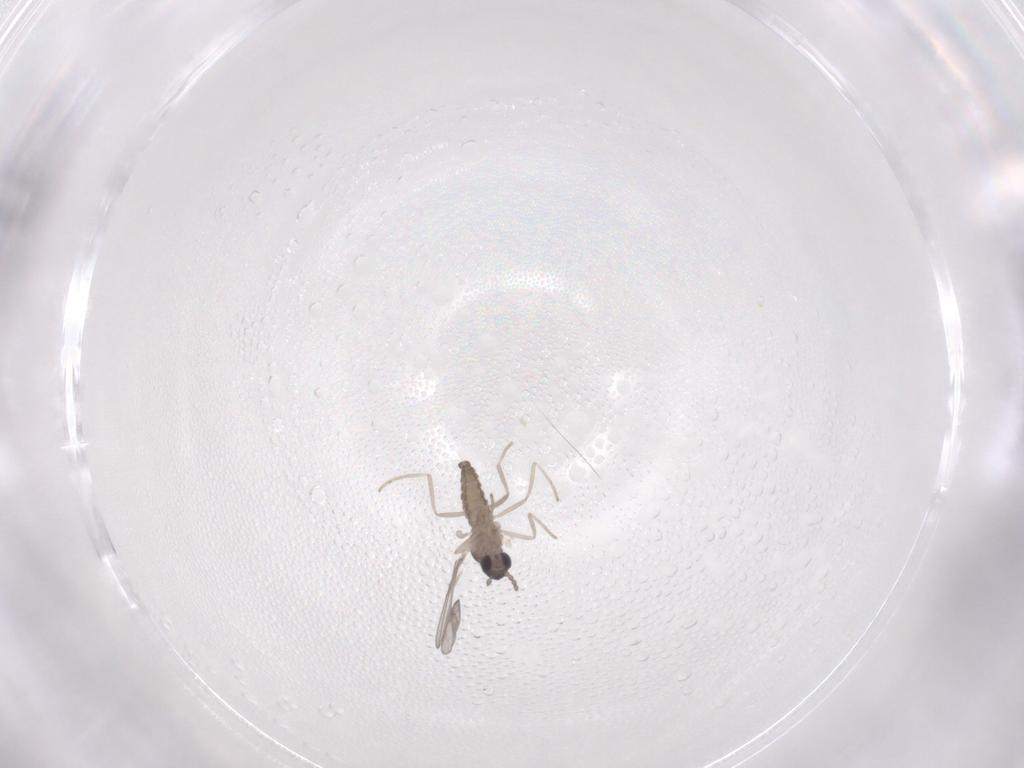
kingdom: Animalia
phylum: Arthropoda
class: Insecta
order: Diptera
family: Cecidomyiidae
